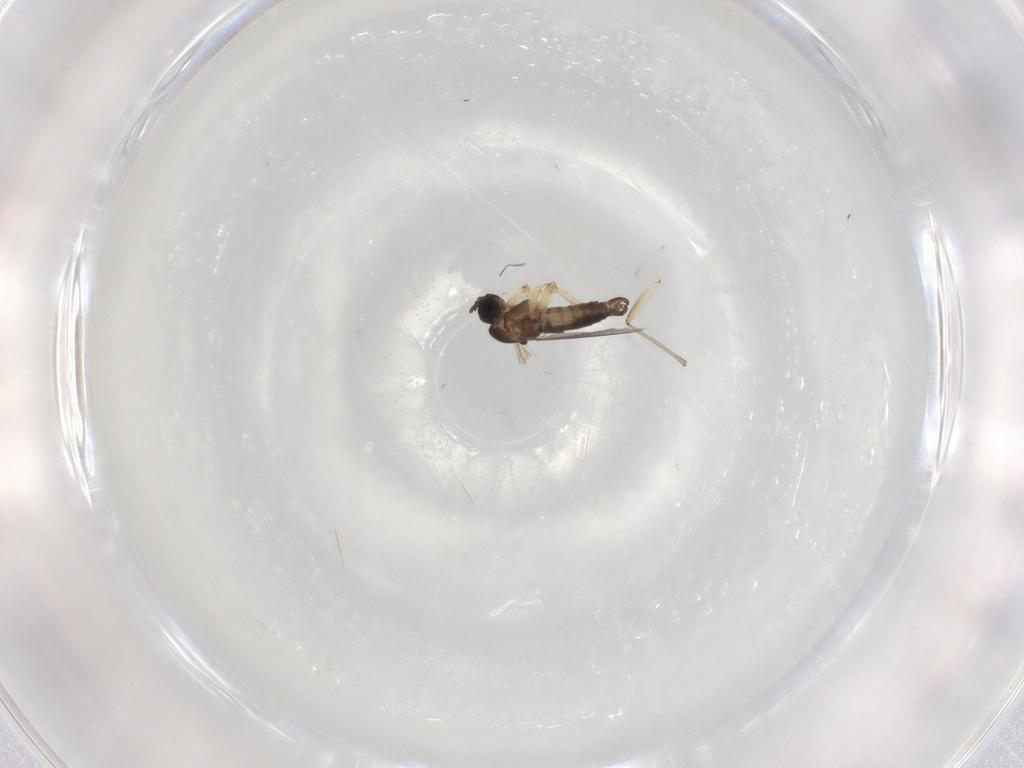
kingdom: Animalia
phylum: Arthropoda
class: Insecta
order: Diptera
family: Sciaridae
